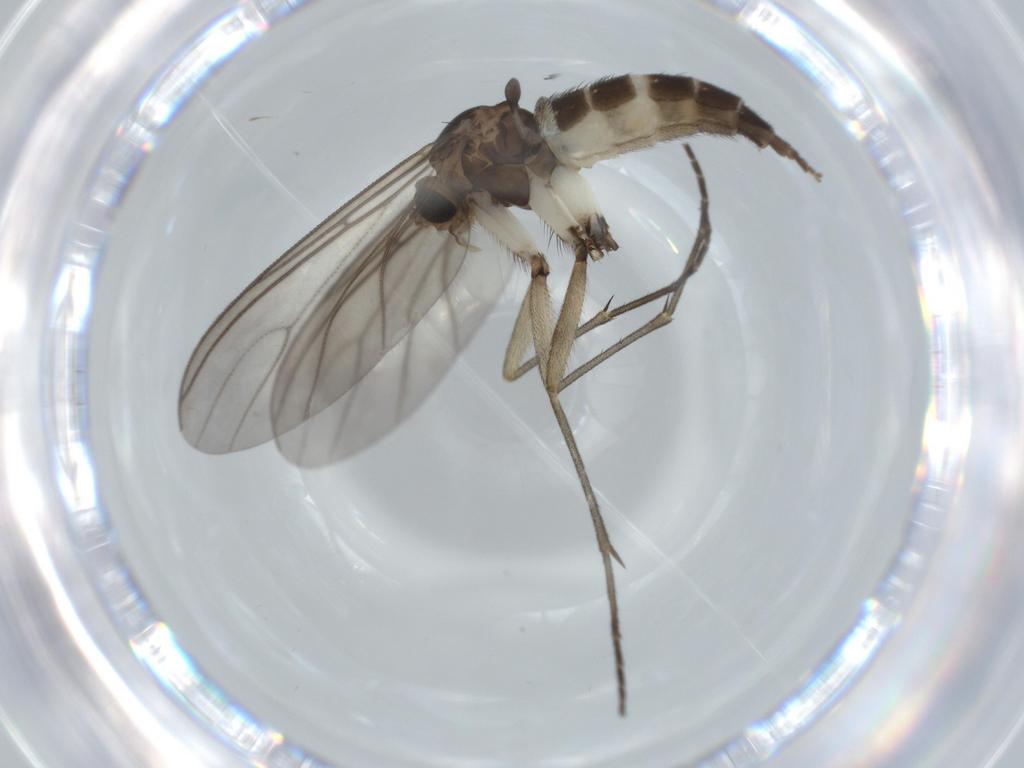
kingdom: Animalia
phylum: Arthropoda
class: Insecta
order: Diptera
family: Sciaridae
